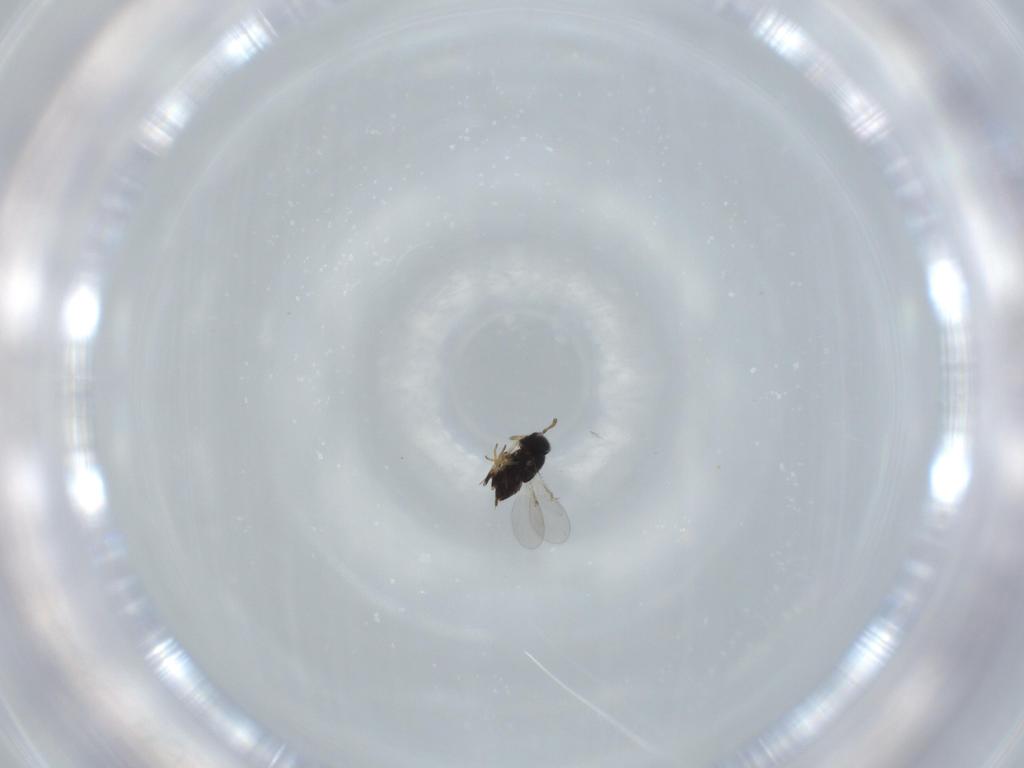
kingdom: Animalia
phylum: Arthropoda
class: Insecta
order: Hymenoptera
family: Encyrtidae
